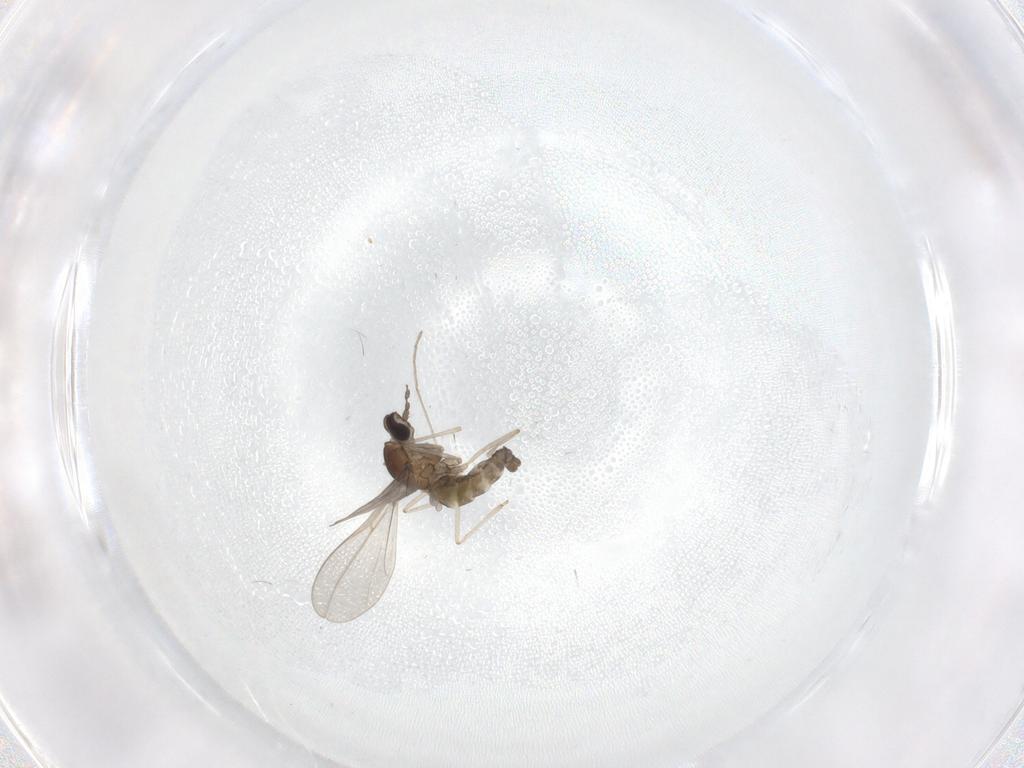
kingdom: Animalia
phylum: Arthropoda
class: Insecta
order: Diptera
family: Cecidomyiidae
